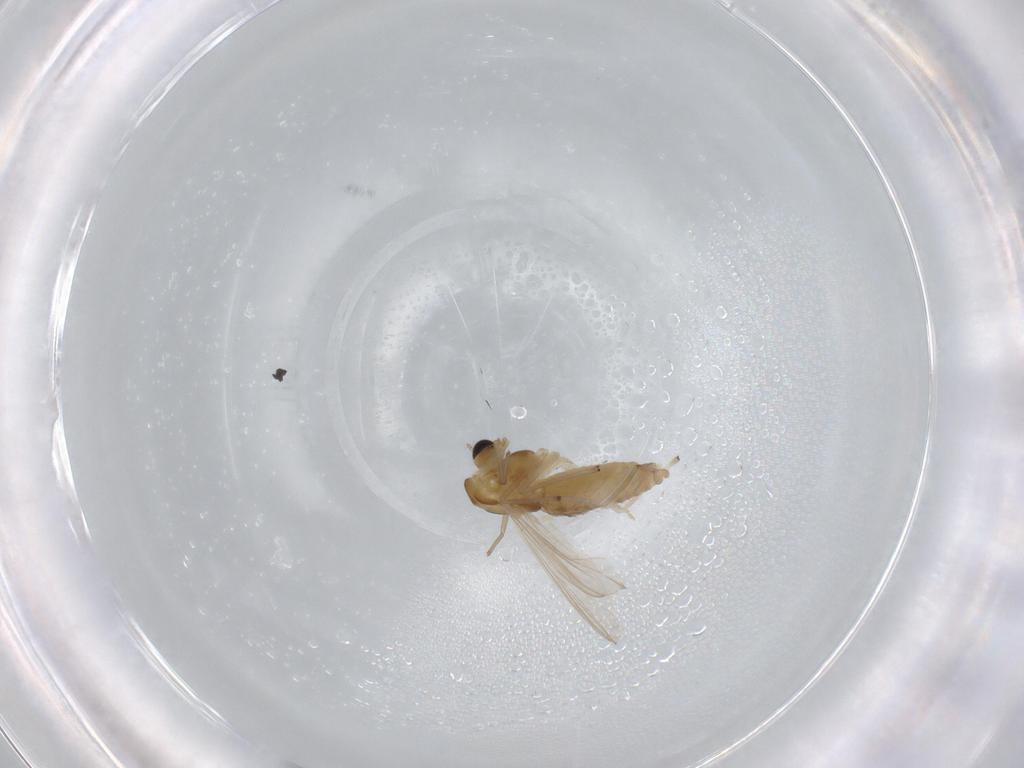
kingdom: Animalia
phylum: Arthropoda
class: Insecta
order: Diptera
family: Chironomidae
